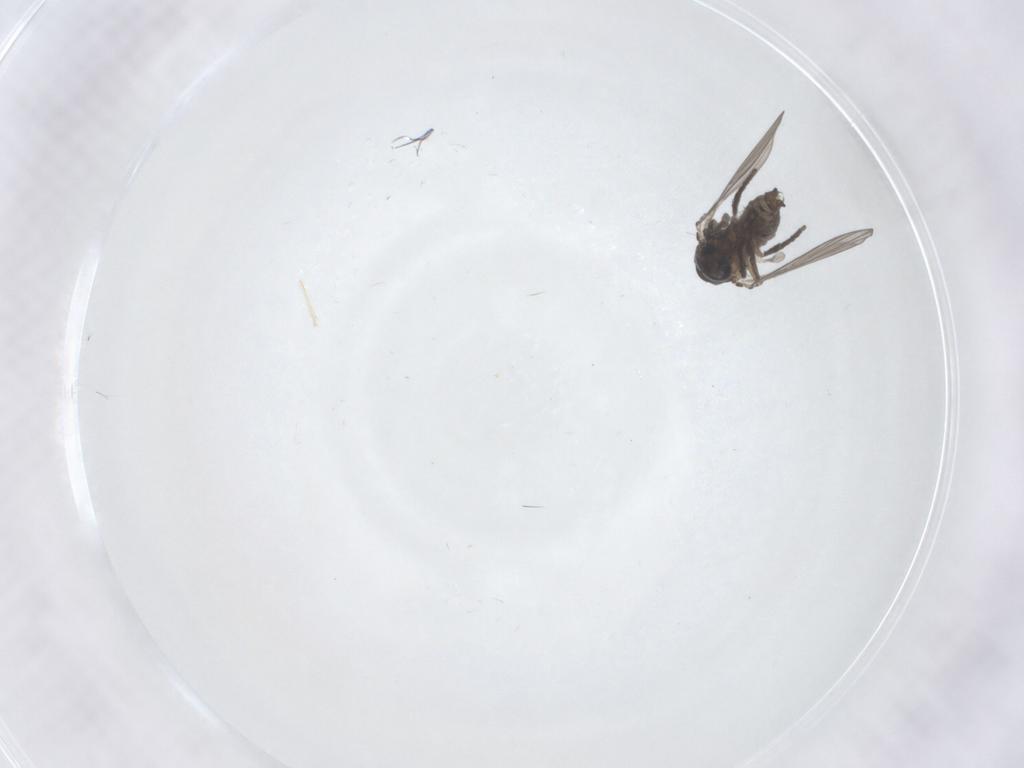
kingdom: Animalia
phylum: Arthropoda
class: Insecta
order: Diptera
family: Psychodidae
